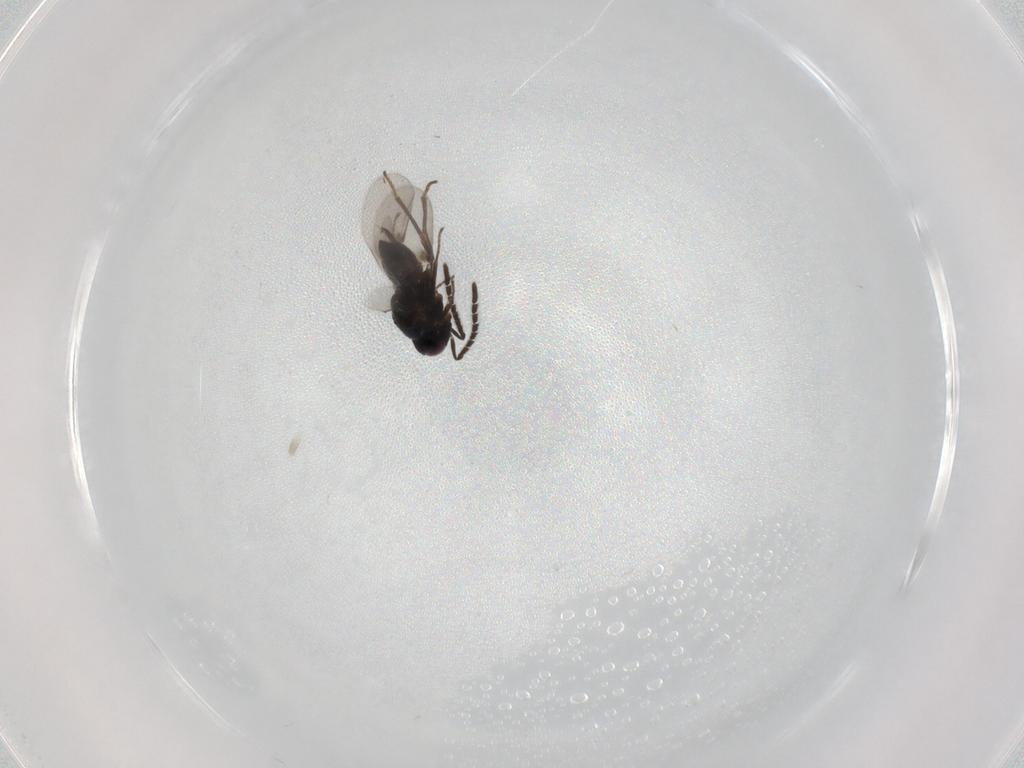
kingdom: Animalia
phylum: Arthropoda
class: Insecta
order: Hymenoptera
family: Encyrtidae
